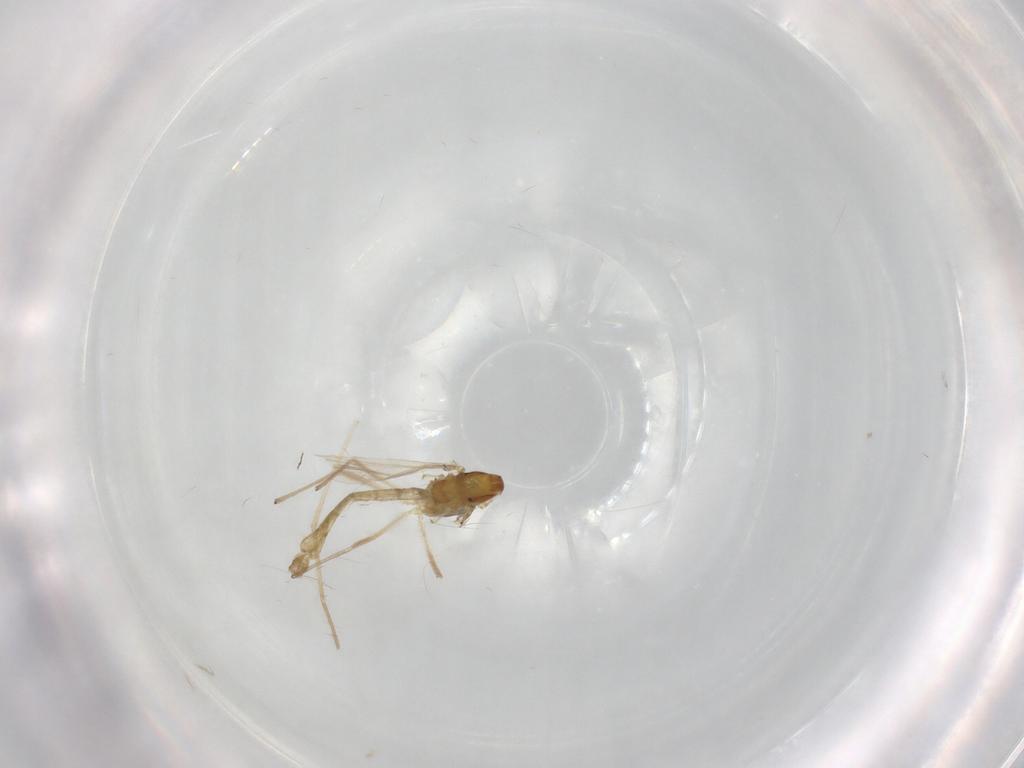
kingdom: Animalia
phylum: Arthropoda
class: Insecta
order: Diptera
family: Chironomidae
